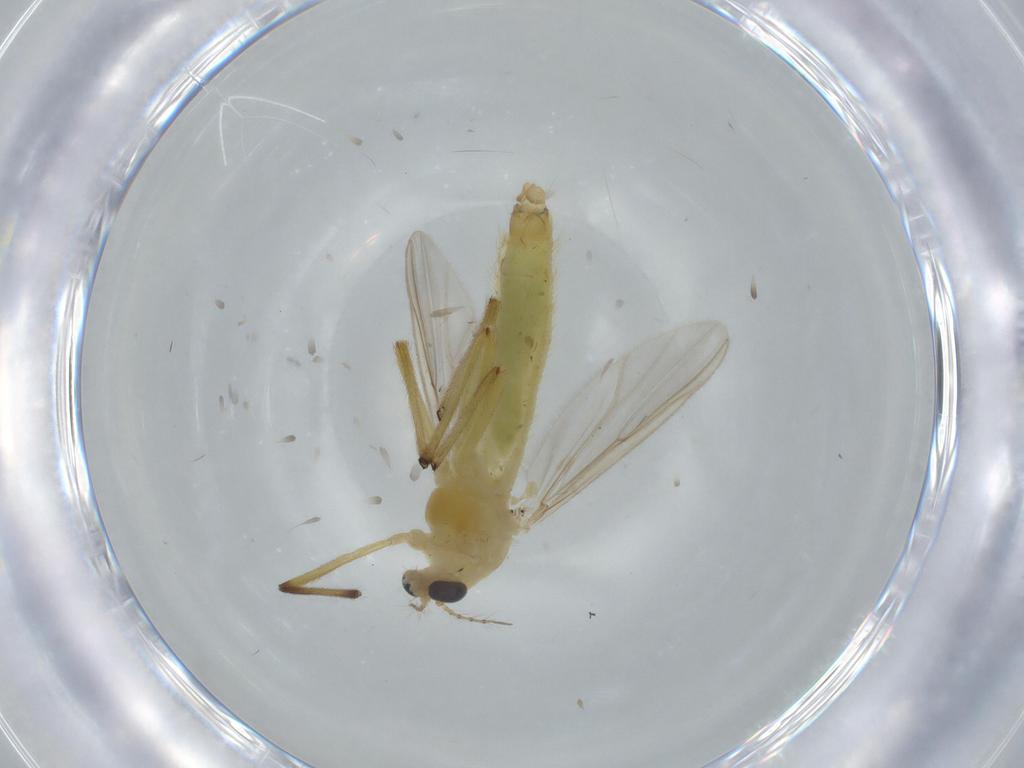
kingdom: Animalia
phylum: Arthropoda
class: Insecta
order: Diptera
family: Chironomidae
